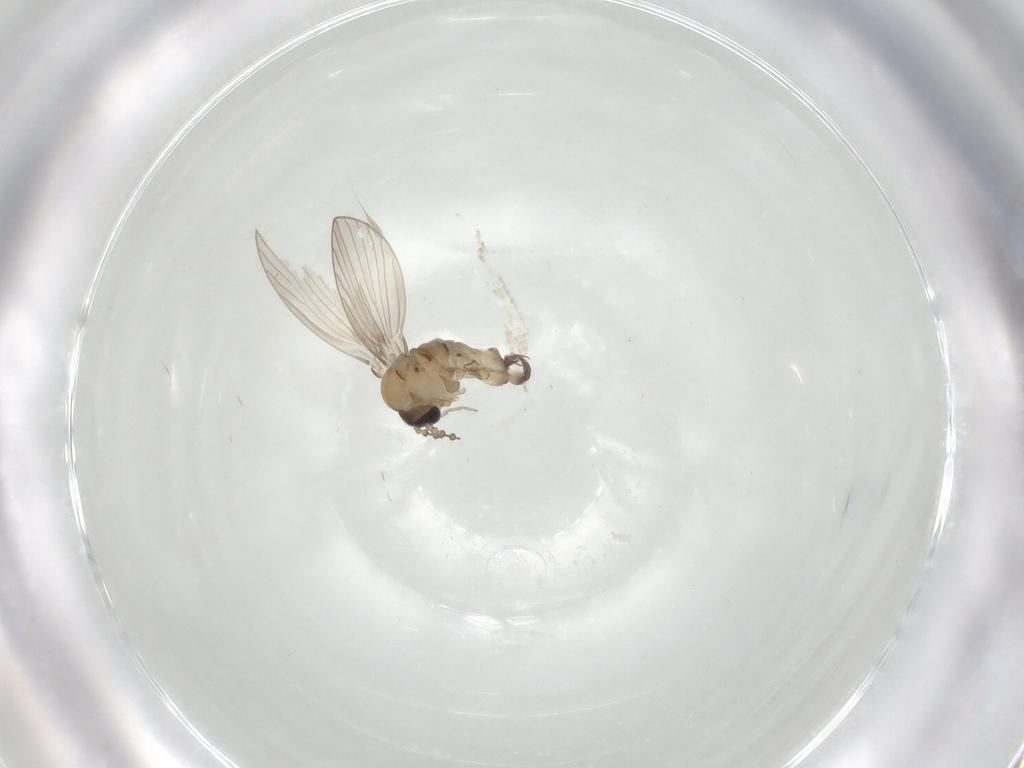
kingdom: Animalia
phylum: Arthropoda
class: Insecta
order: Diptera
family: Psychodidae
